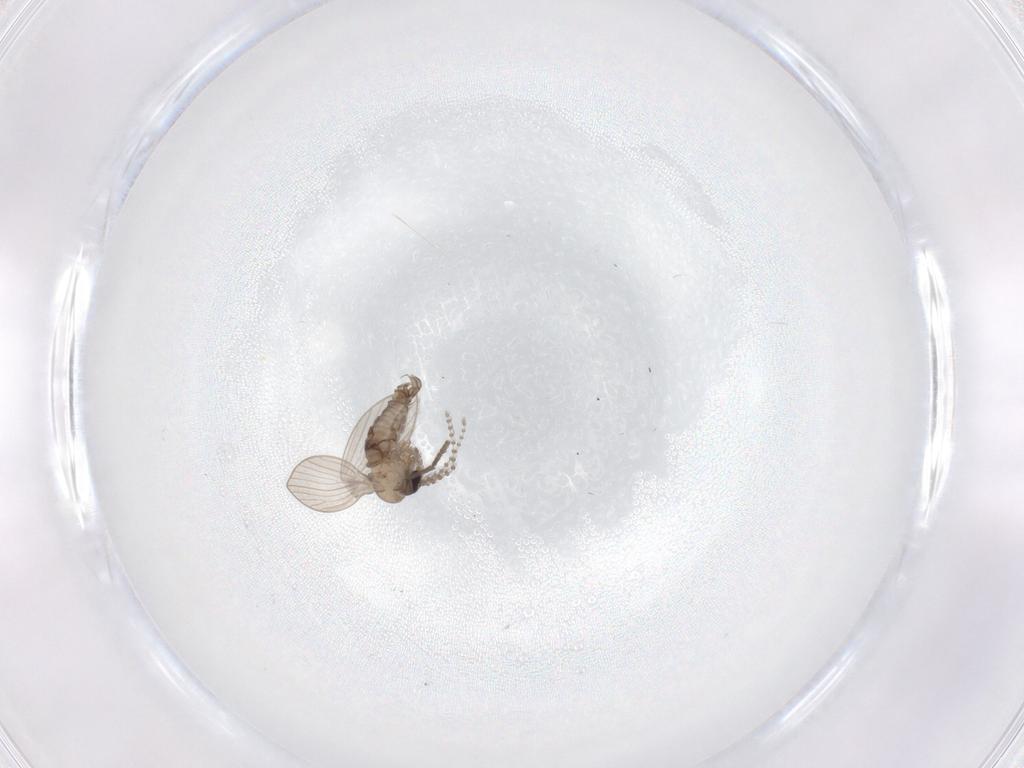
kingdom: Animalia
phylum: Arthropoda
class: Insecta
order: Diptera
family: Psychodidae
